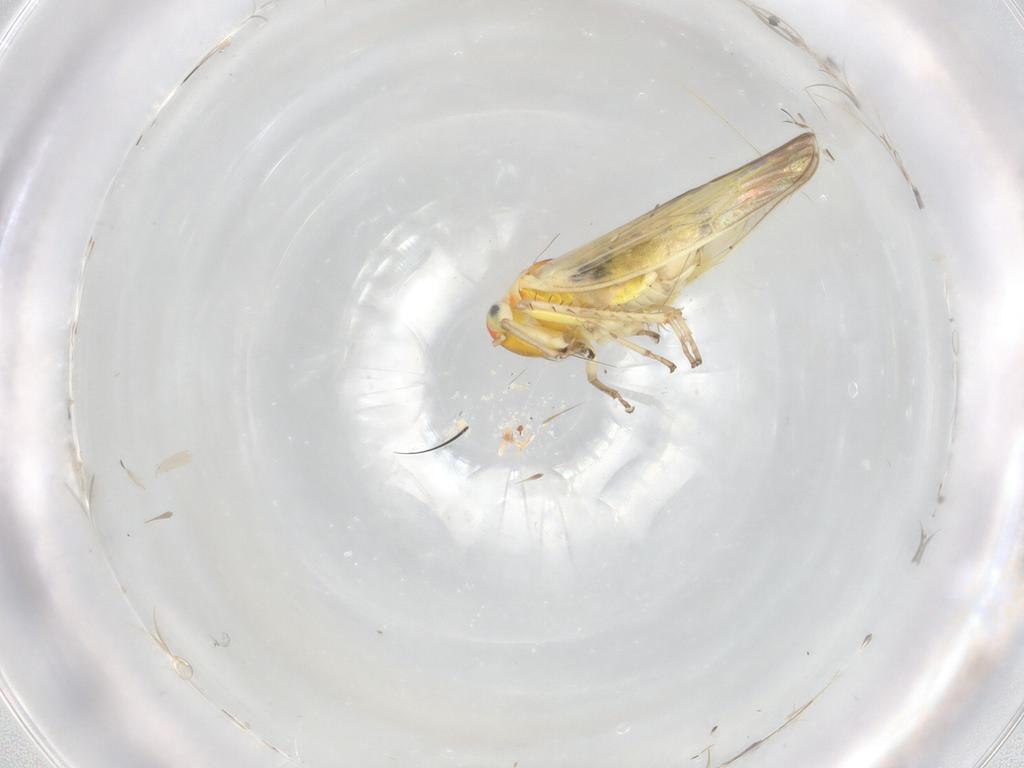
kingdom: Animalia
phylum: Arthropoda
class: Insecta
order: Hemiptera
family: Cicadellidae
